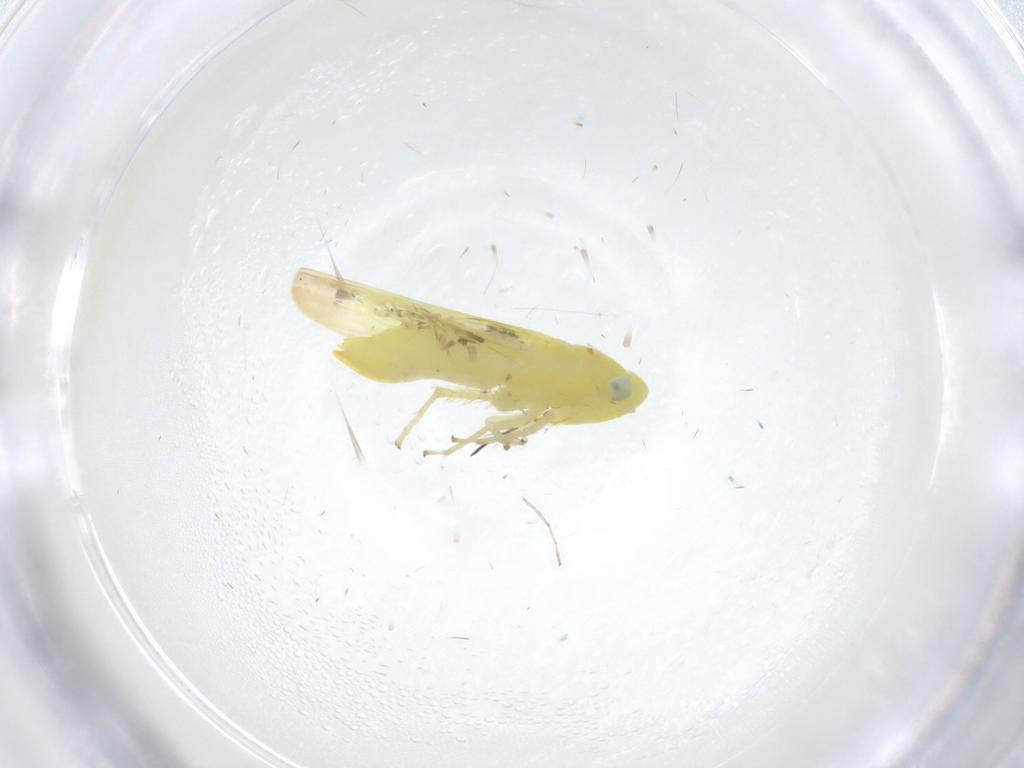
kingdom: Animalia
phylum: Arthropoda
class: Insecta
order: Hemiptera
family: Cicadellidae
